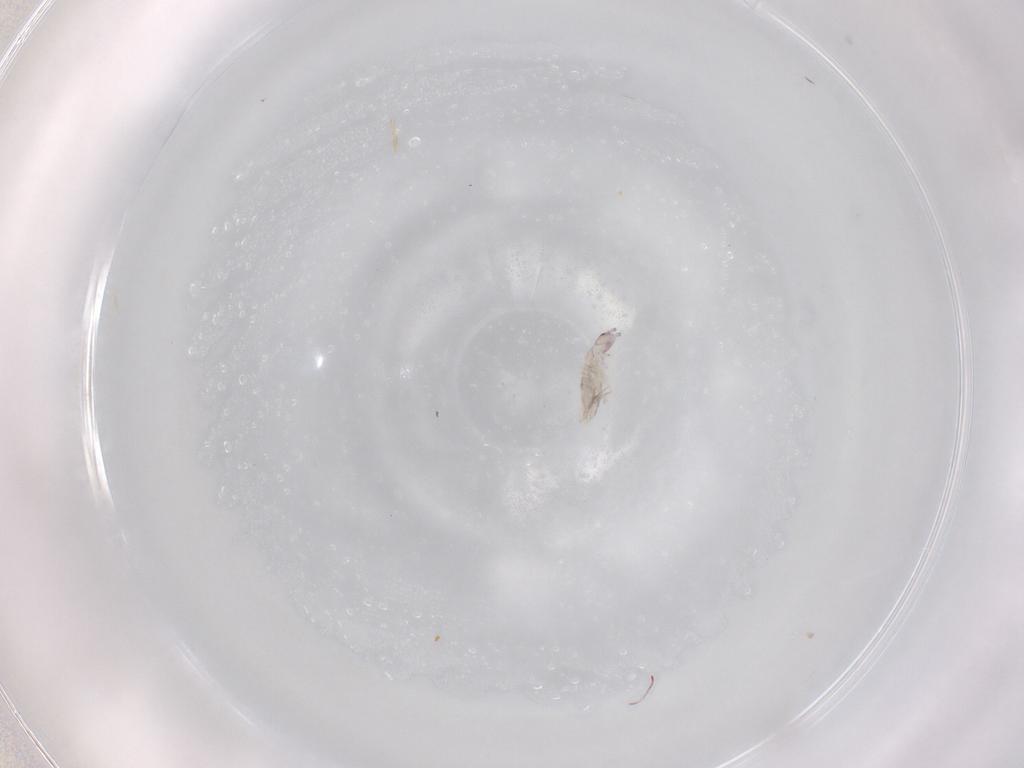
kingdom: Animalia
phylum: Arthropoda
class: Collembola
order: Entomobryomorpha
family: Entomobryidae
